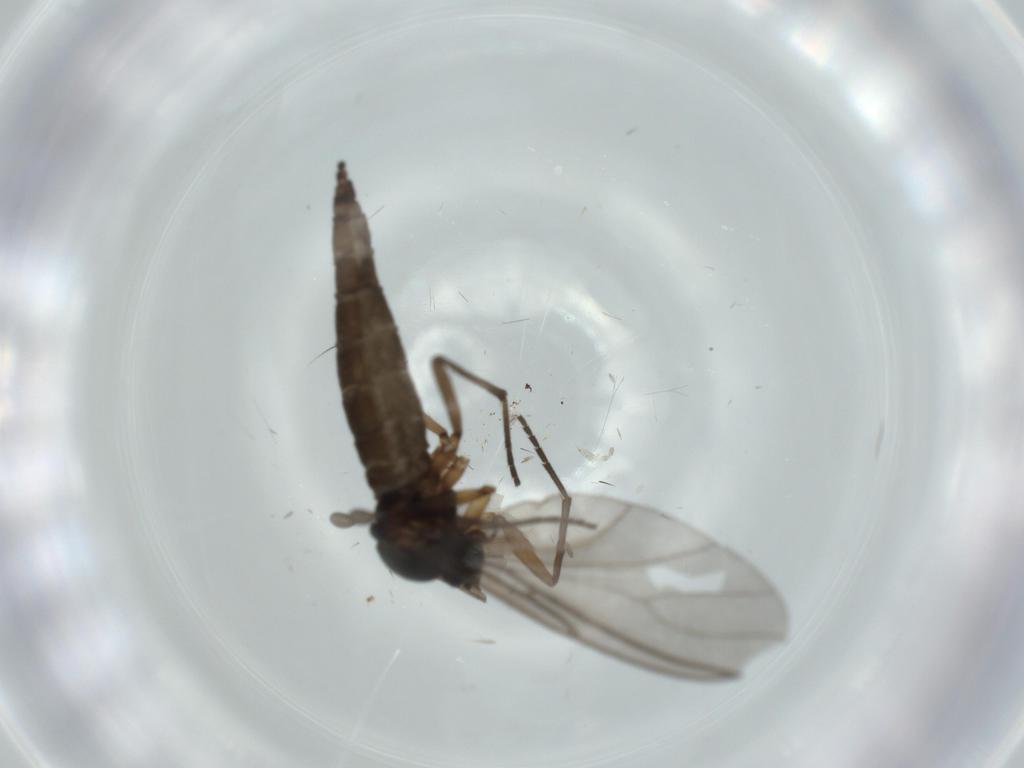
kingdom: Animalia
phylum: Arthropoda
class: Insecta
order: Diptera
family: Sciaridae
